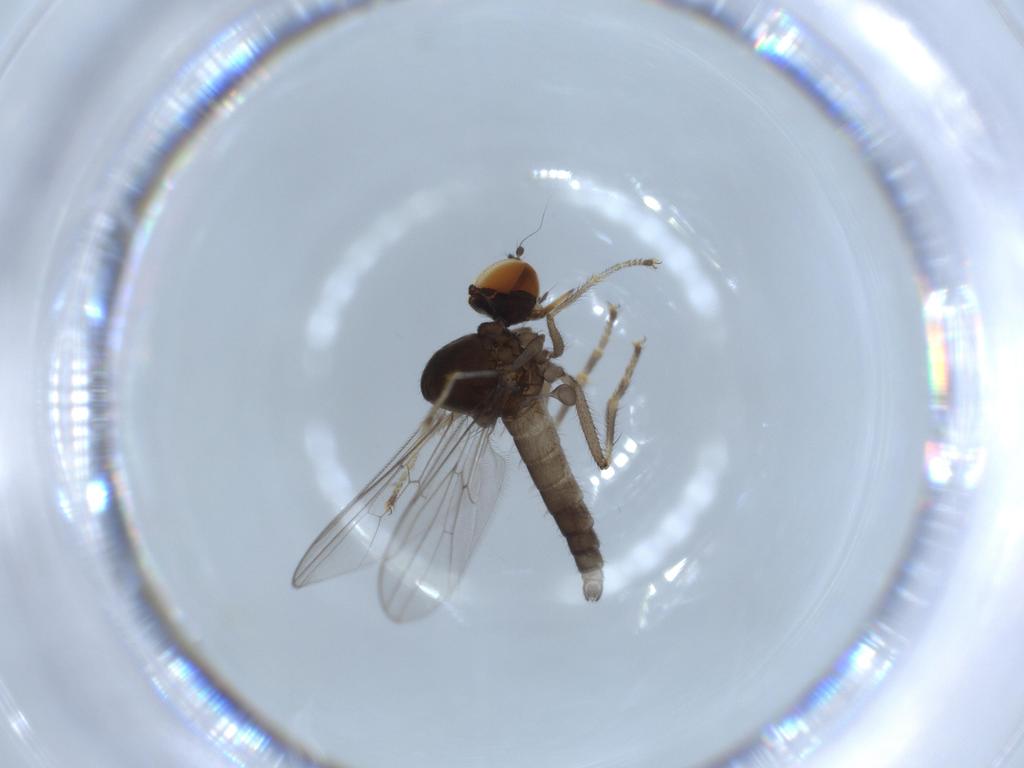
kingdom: Animalia
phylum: Arthropoda
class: Insecta
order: Diptera
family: Hybotidae
